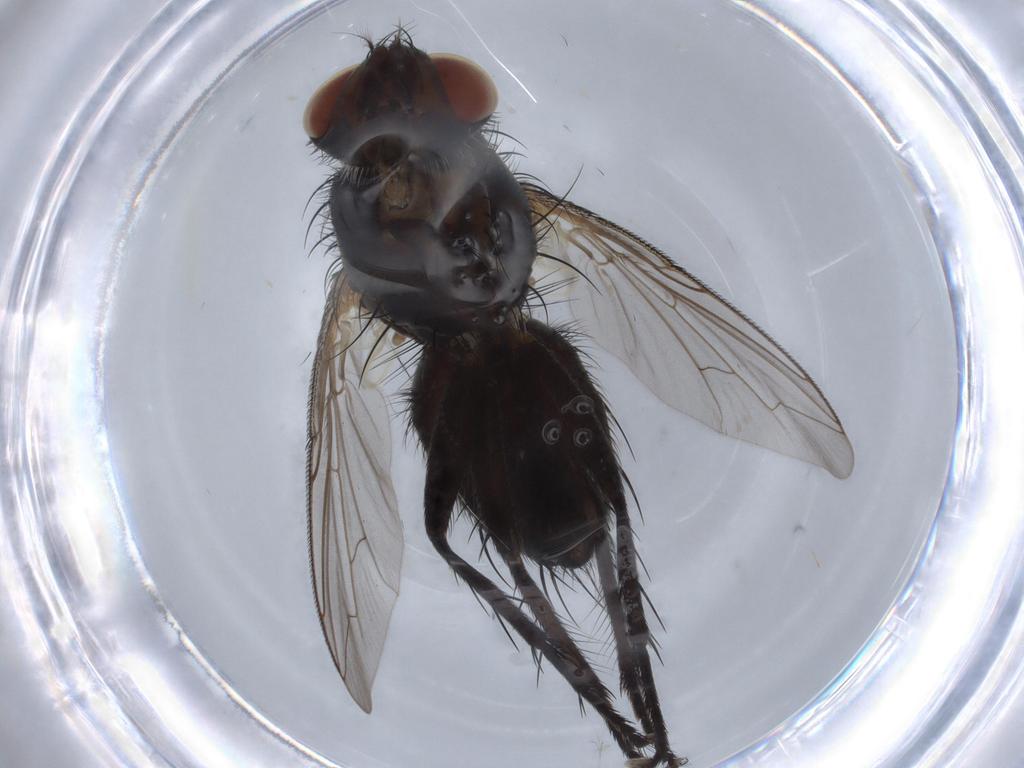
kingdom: Animalia
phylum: Arthropoda
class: Insecta
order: Diptera
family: Sarcophagidae
